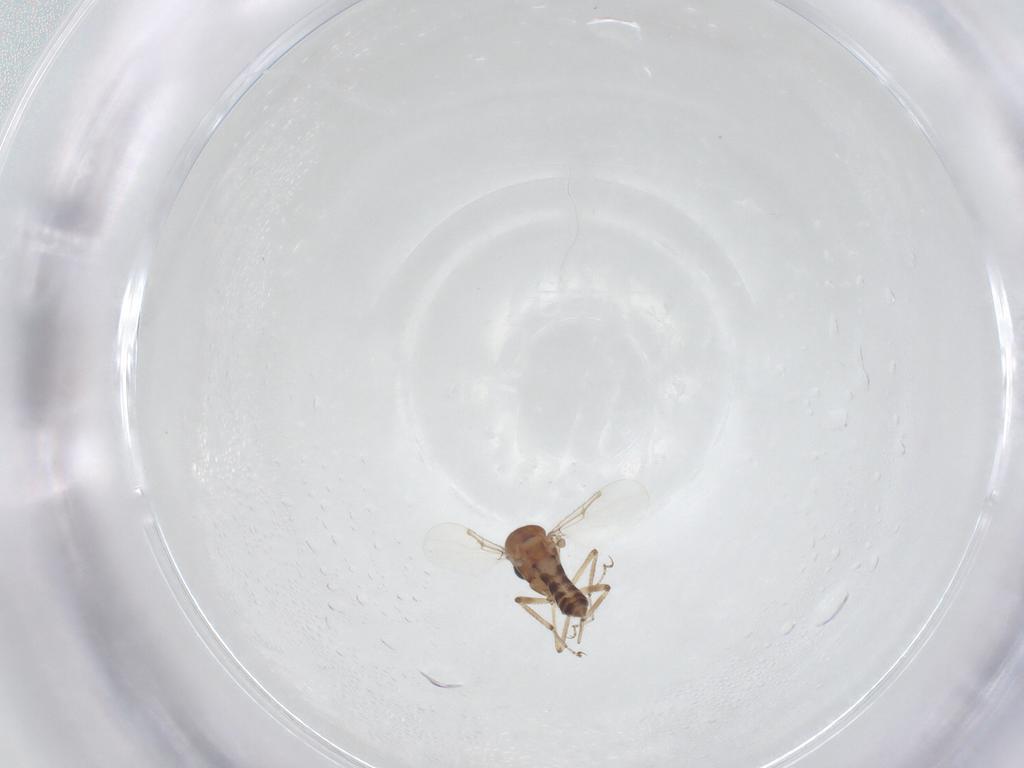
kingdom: Animalia
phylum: Arthropoda
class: Insecta
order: Diptera
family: Ceratopogonidae
